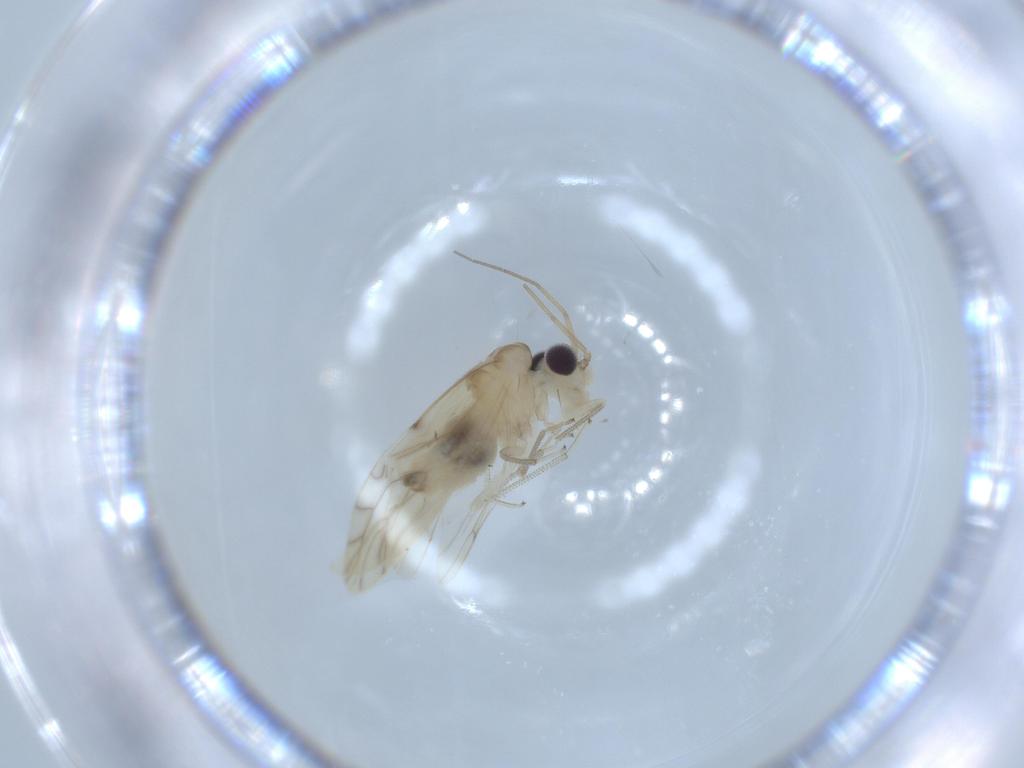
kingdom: Animalia
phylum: Arthropoda
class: Insecta
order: Psocodea
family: Caeciliusidae
